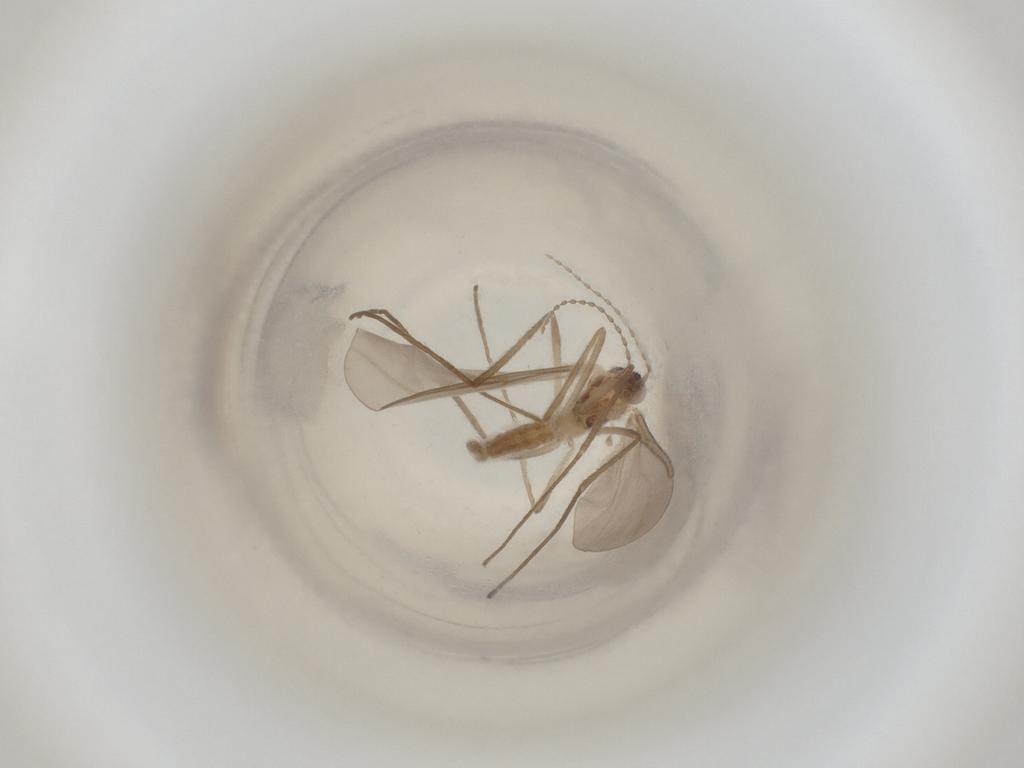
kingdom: Animalia
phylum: Arthropoda
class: Insecta
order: Diptera
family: Cecidomyiidae
